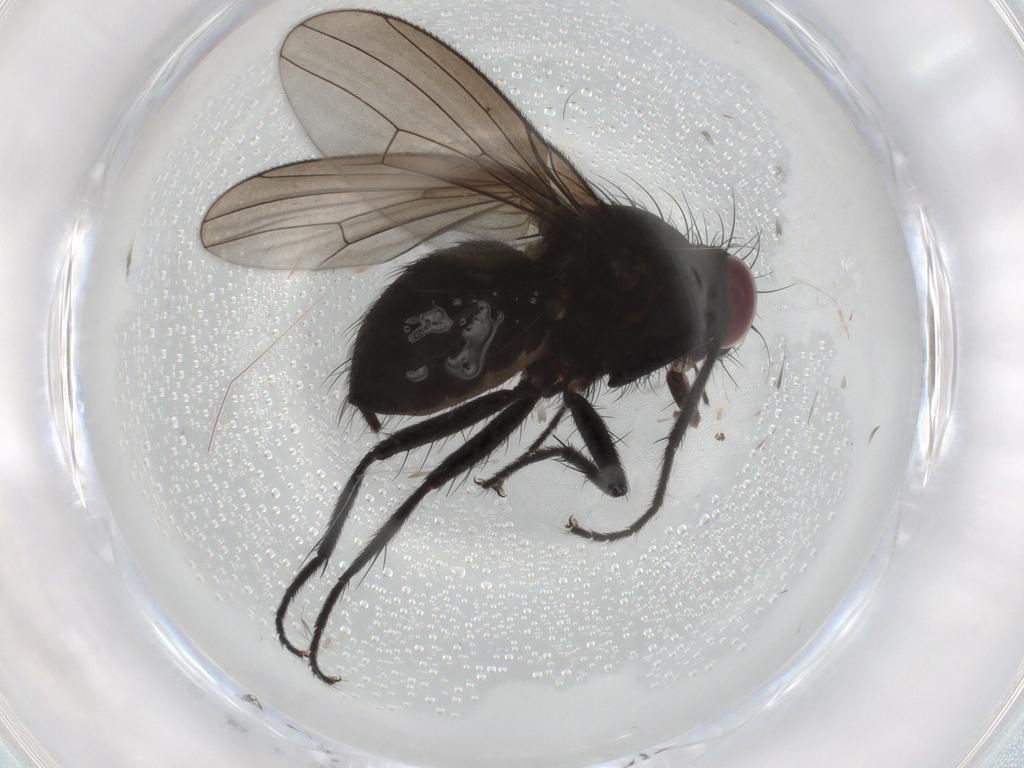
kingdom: Animalia
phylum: Arthropoda
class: Insecta
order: Diptera
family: Muscidae
